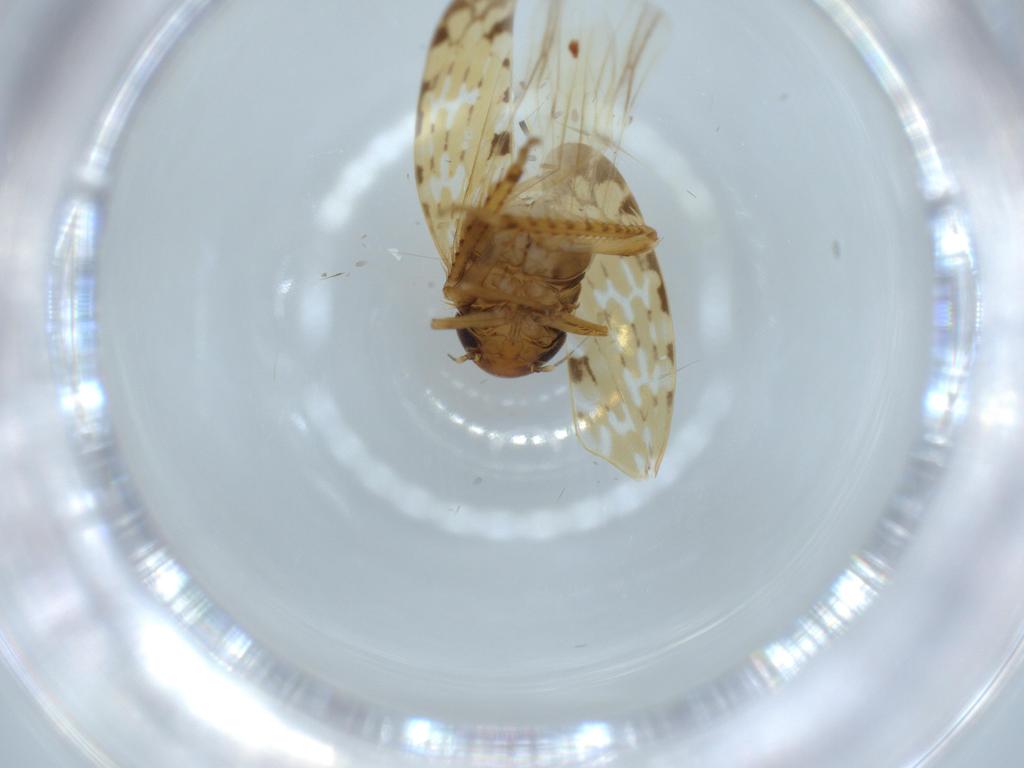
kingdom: Animalia
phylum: Arthropoda
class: Insecta
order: Hemiptera
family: Cicadellidae
